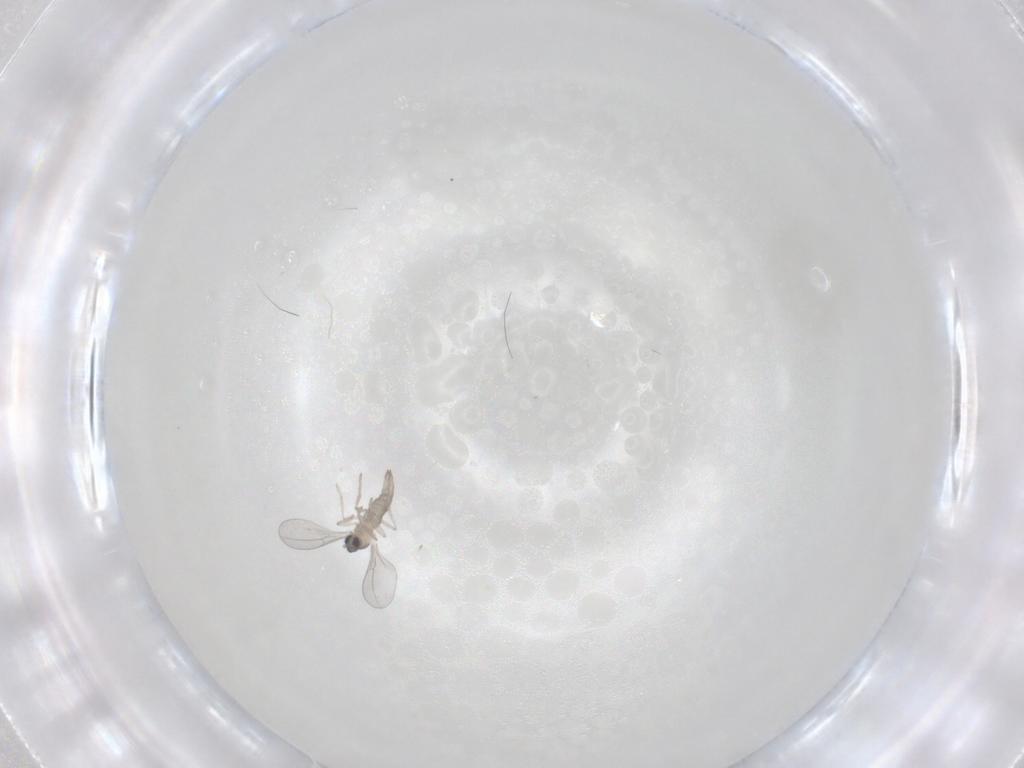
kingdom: Animalia
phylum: Arthropoda
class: Insecta
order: Diptera
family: Cecidomyiidae
